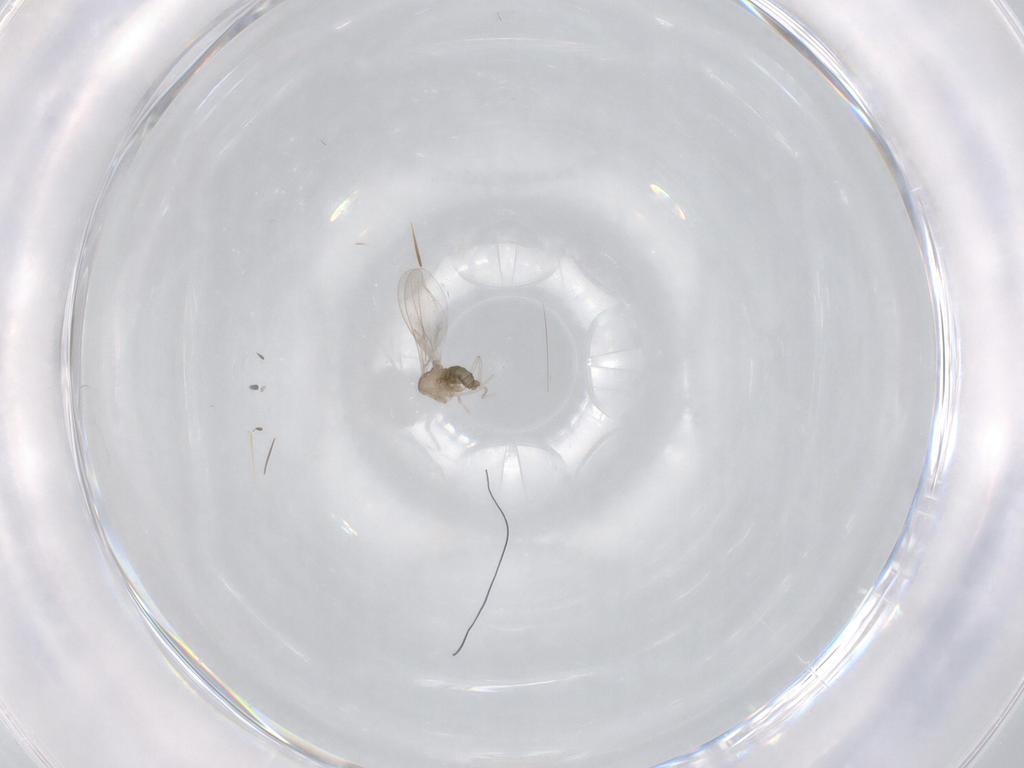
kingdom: Animalia
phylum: Arthropoda
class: Insecta
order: Diptera
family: Cecidomyiidae
